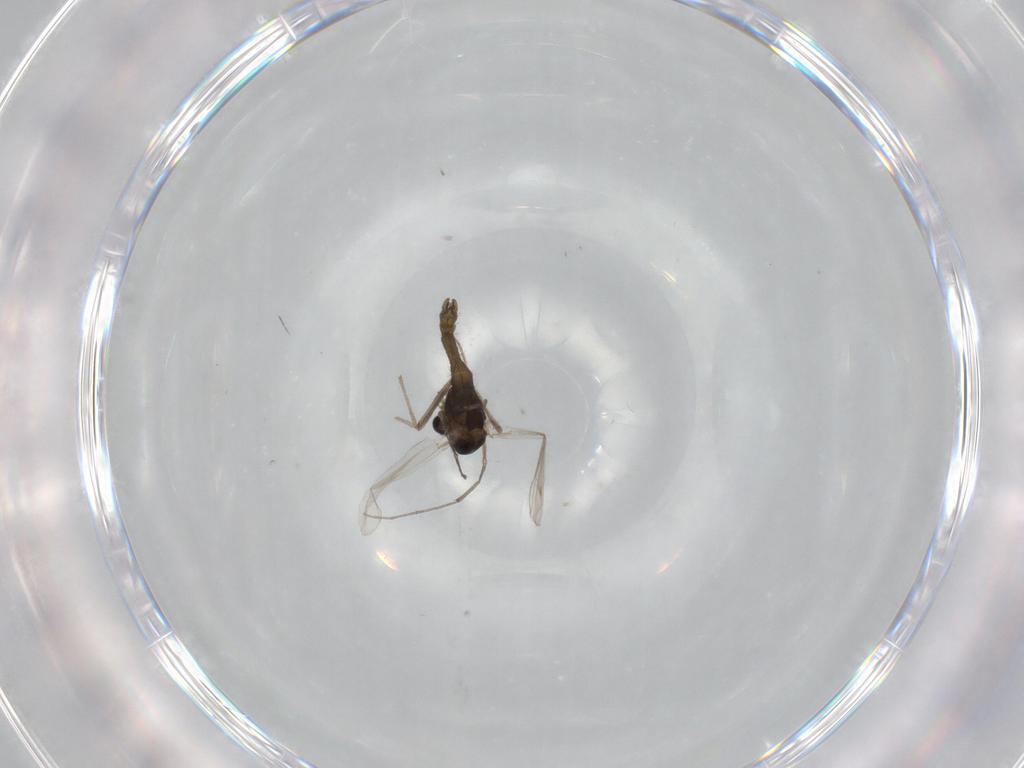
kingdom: Animalia
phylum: Arthropoda
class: Insecta
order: Diptera
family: Chironomidae
